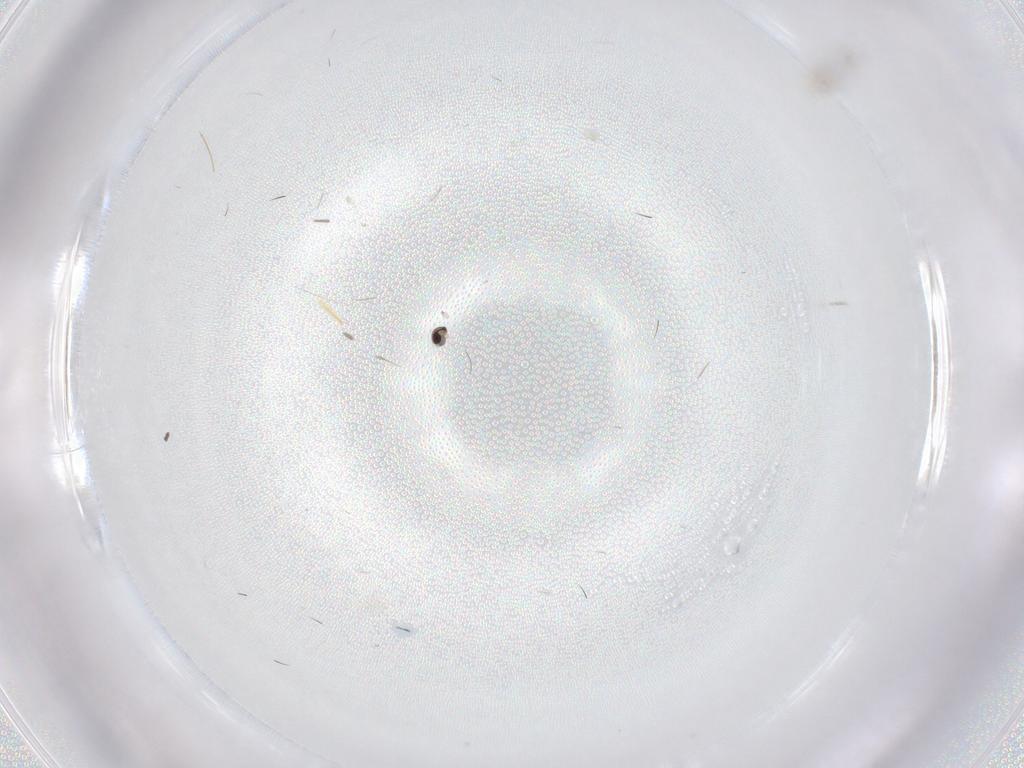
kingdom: Animalia
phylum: Arthropoda
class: Insecta
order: Diptera
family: Cecidomyiidae
